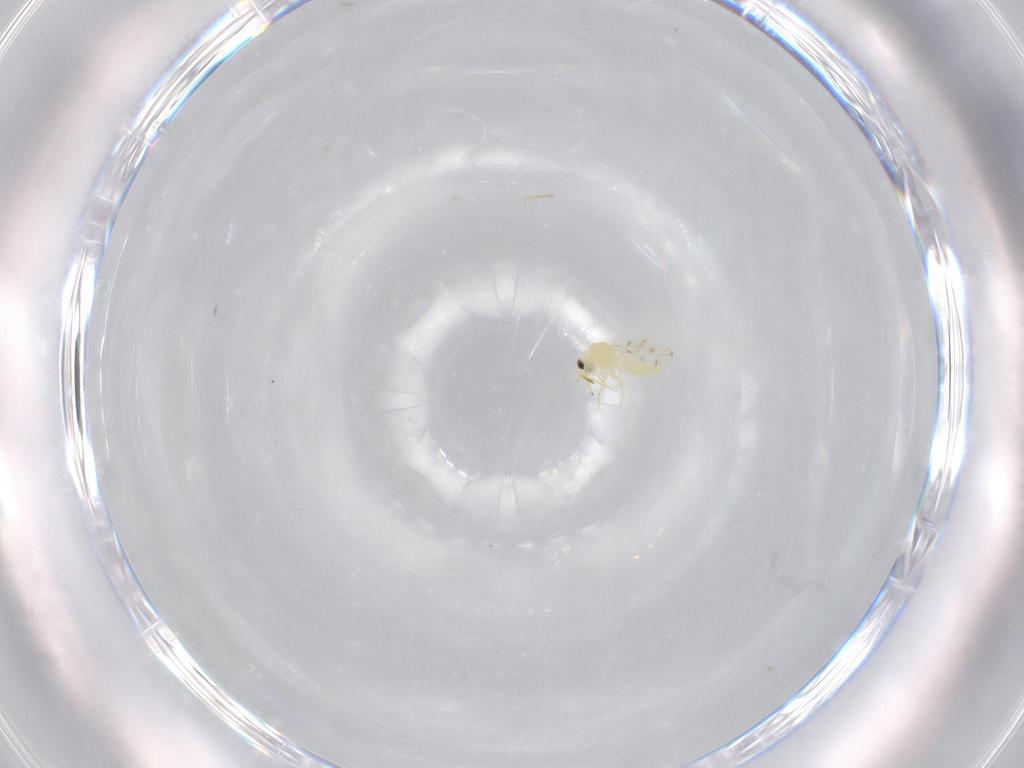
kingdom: Animalia
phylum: Arthropoda
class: Insecta
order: Hemiptera
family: Aleyrodidae
